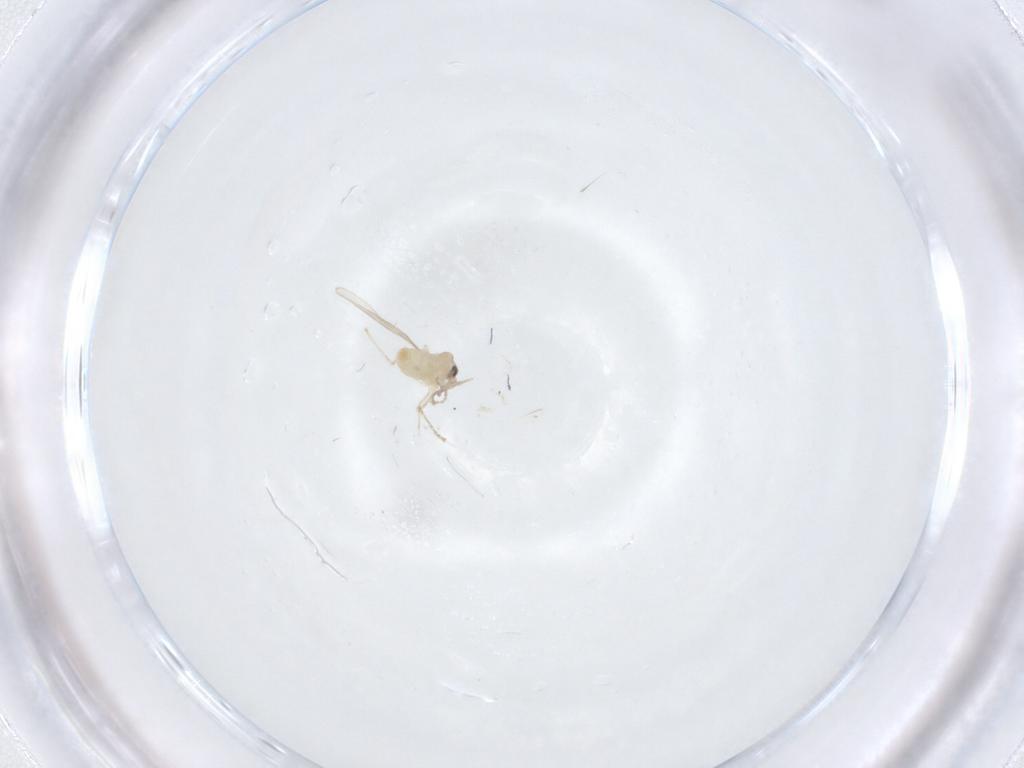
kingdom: Animalia
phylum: Arthropoda
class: Insecta
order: Diptera
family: Cecidomyiidae
